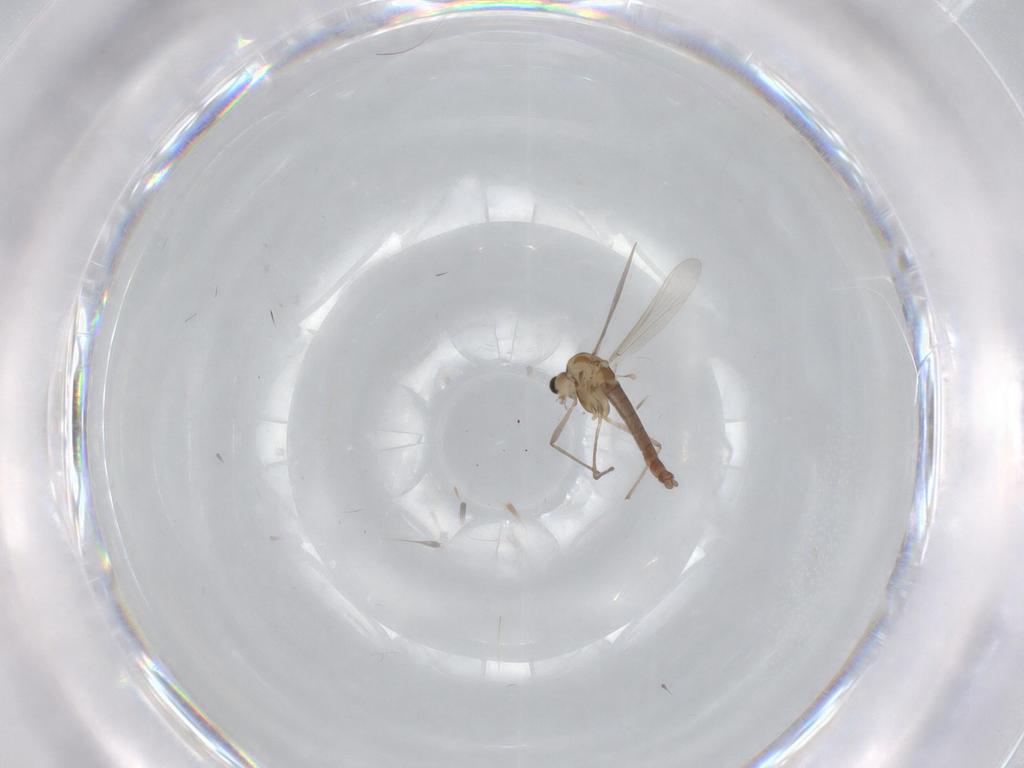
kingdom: Animalia
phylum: Arthropoda
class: Insecta
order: Diptera
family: Chironomidae
